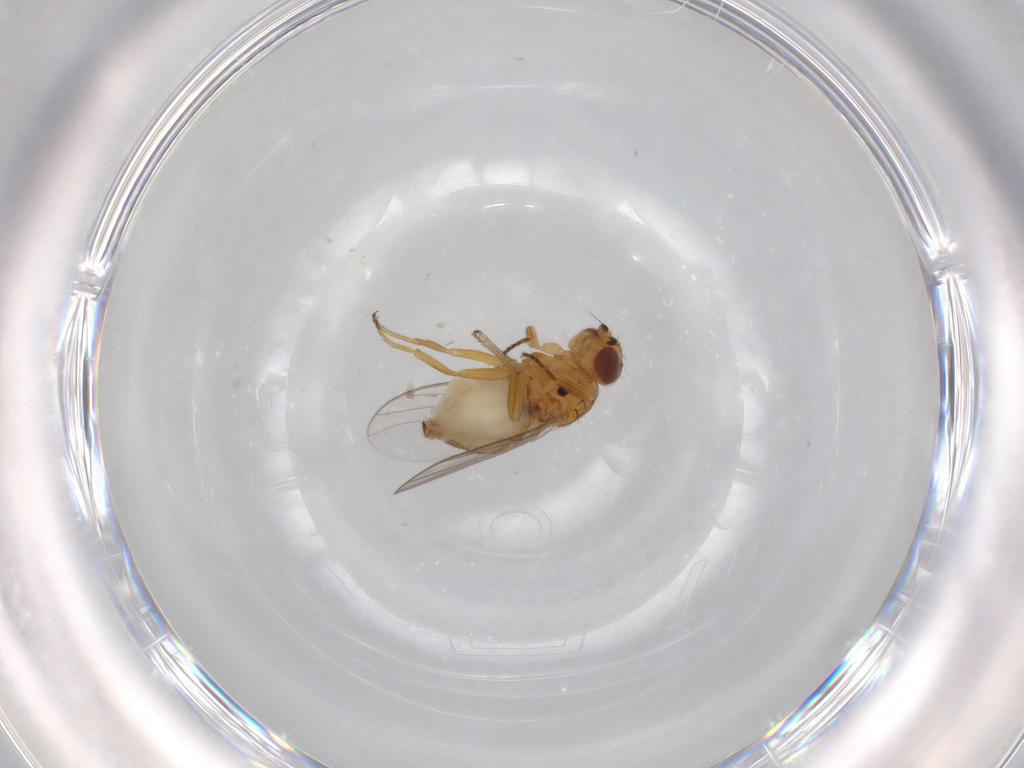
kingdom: Animalia
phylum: Arthropoda
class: Insecta
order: Diptera
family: Chloropidae
